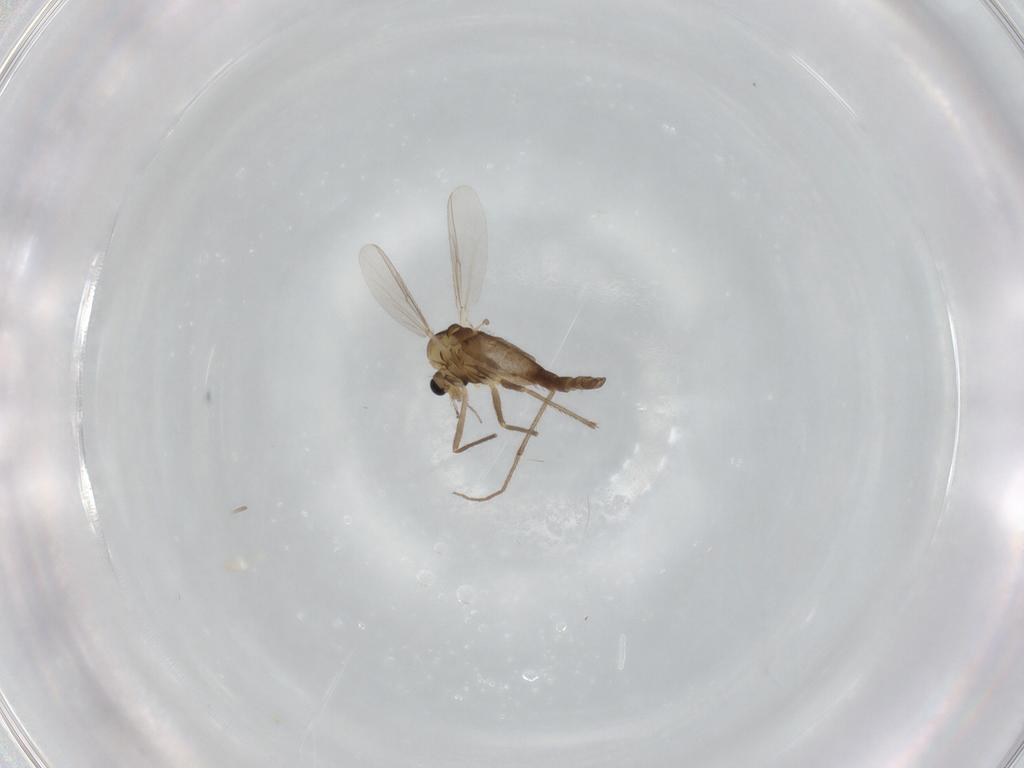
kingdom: Animalia
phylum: Arthropoda
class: Insecta
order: Diptera
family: Chironomidae
